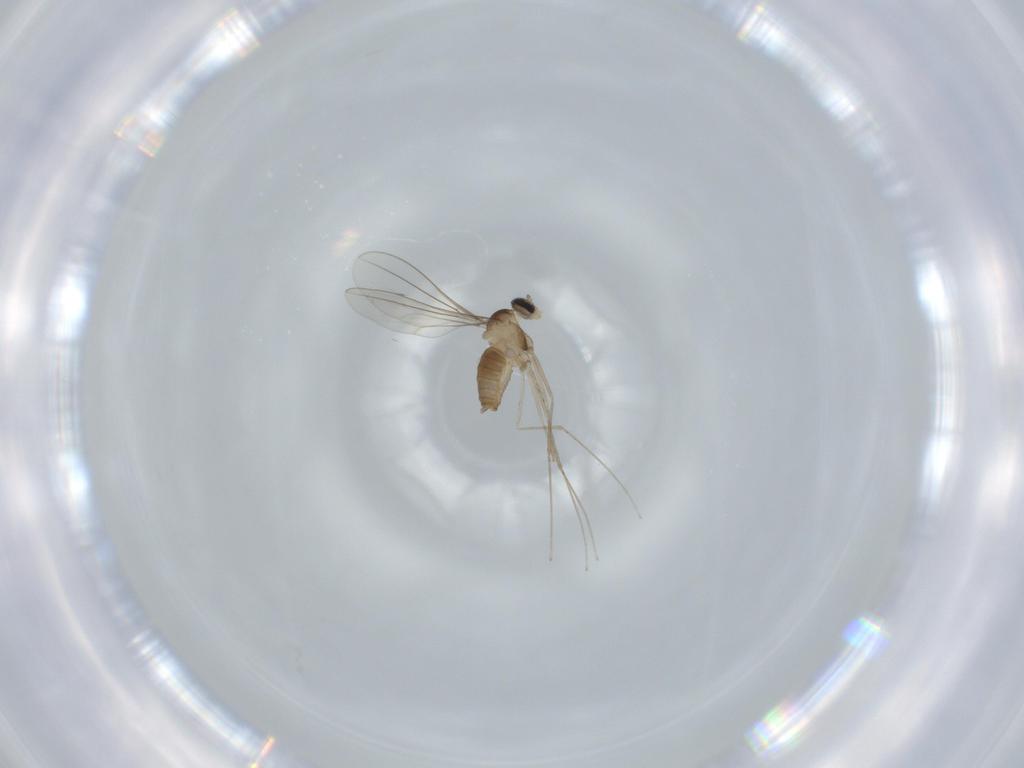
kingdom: Animalia
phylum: Arthropoda
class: Insecta
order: Diptera
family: Cecidomyiidae
